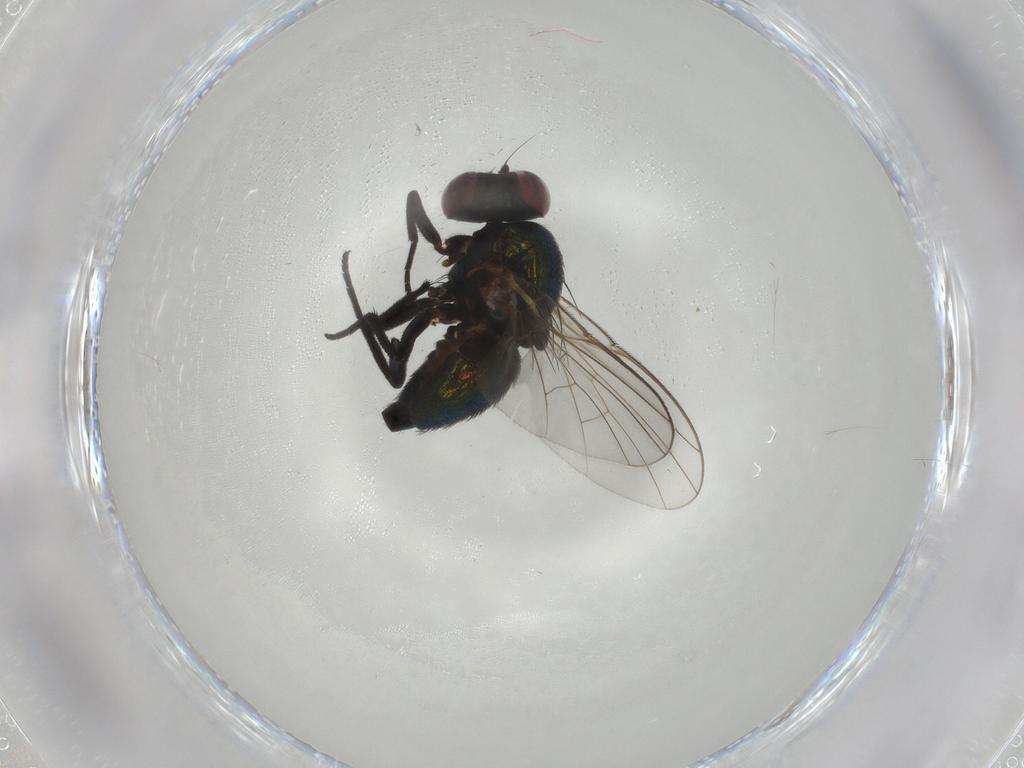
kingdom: Animalia
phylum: Arthropoda
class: Insecta
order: Diptera
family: Agromyzidae
